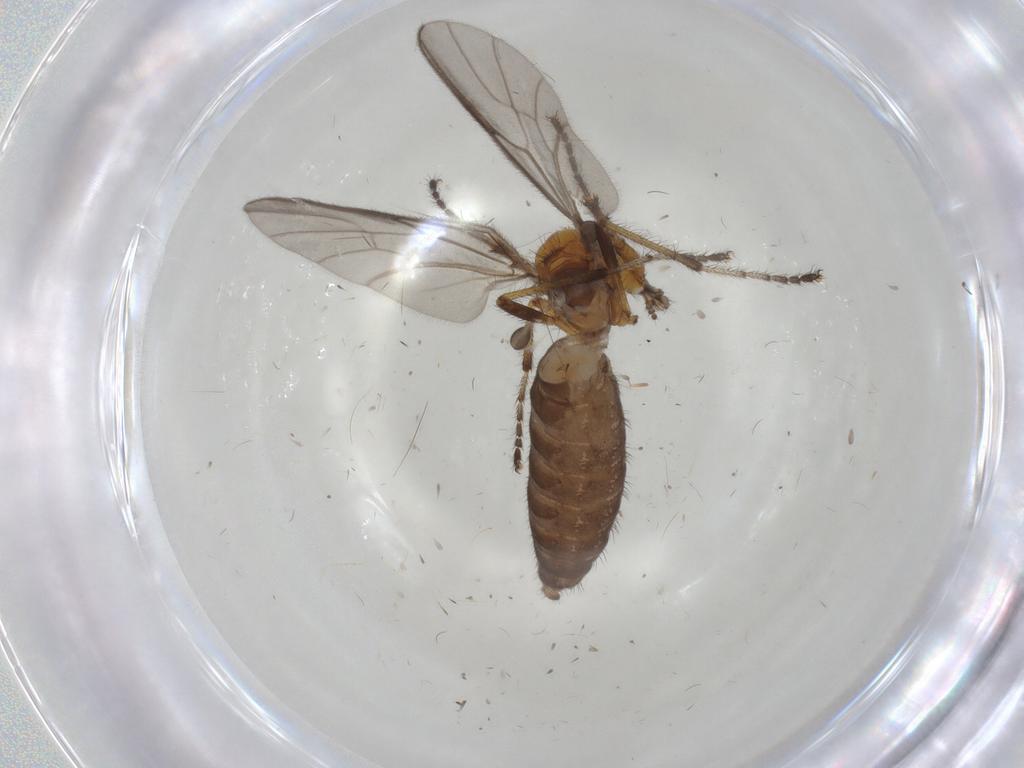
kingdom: Animalia
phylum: Arthropoda
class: Insecta
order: Diptera
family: Bibionidae
